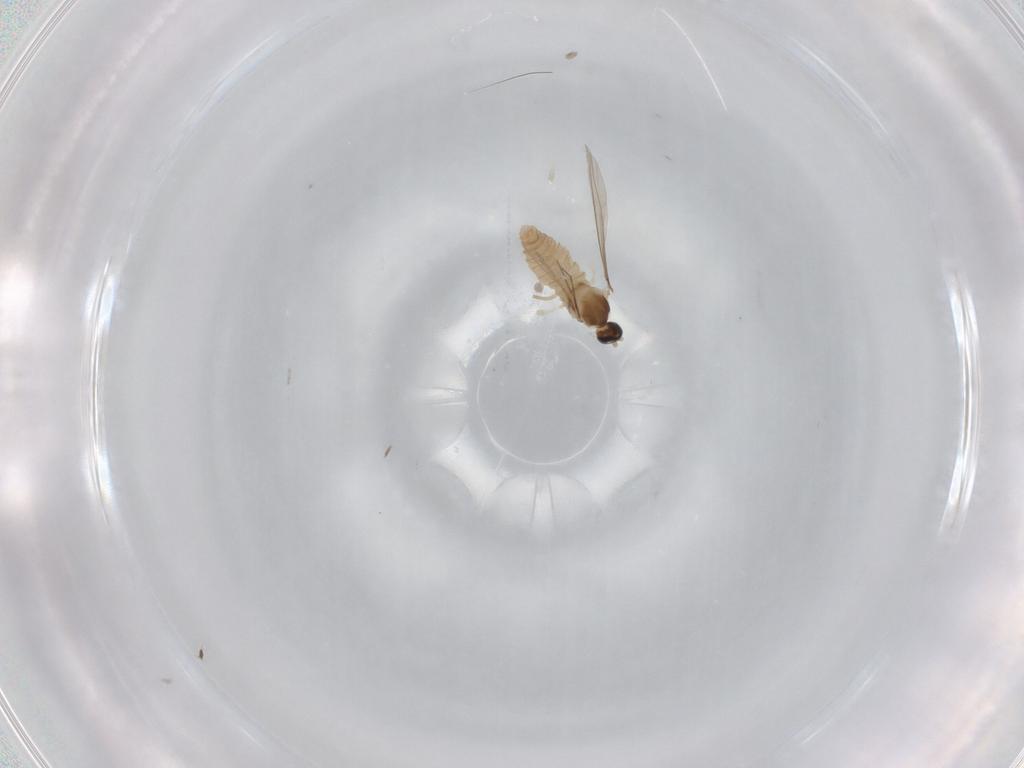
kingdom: Animalia
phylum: Arthropoda
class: Insecta
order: Diptera
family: Cecidomyiidae
